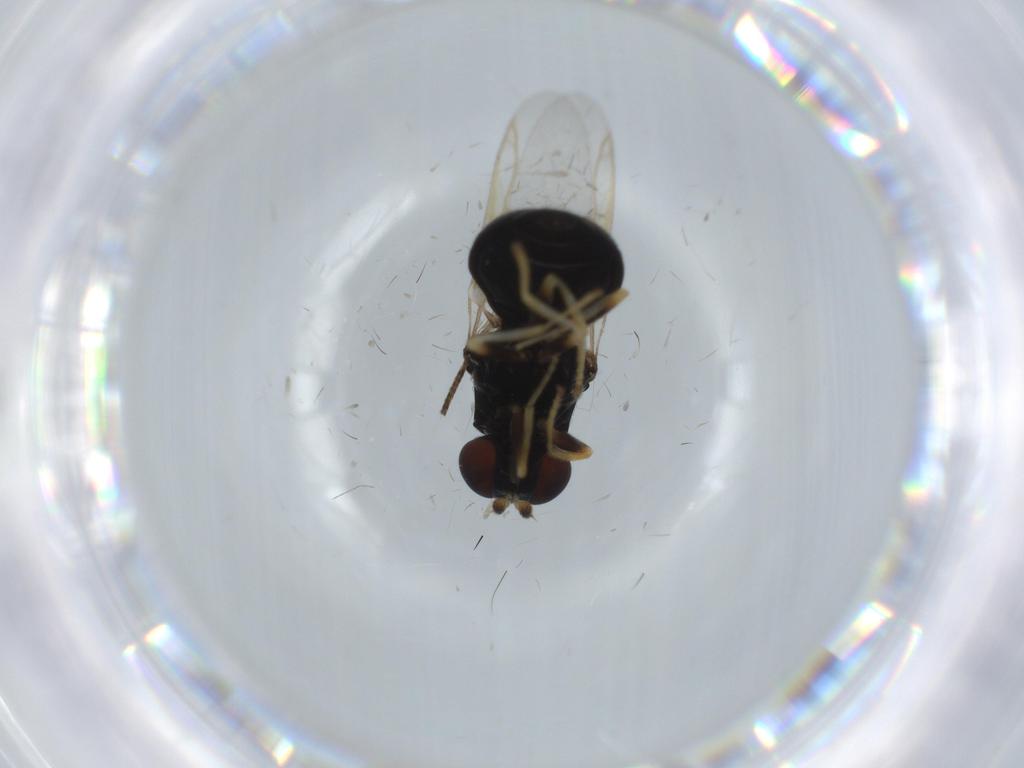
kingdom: Animalia
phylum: Arthropoda
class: Insecta
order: Diptera
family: Stratiomyidae
